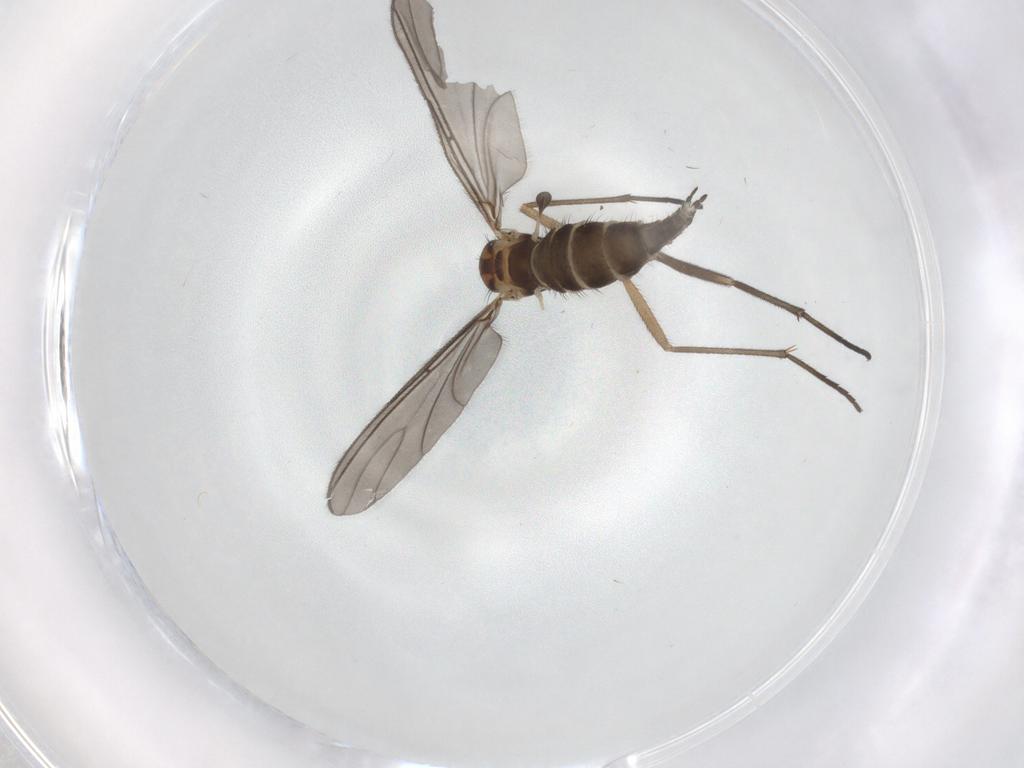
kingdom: Animalia
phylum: Arthropoda
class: Insecta
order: Diptera
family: Sciaridae
